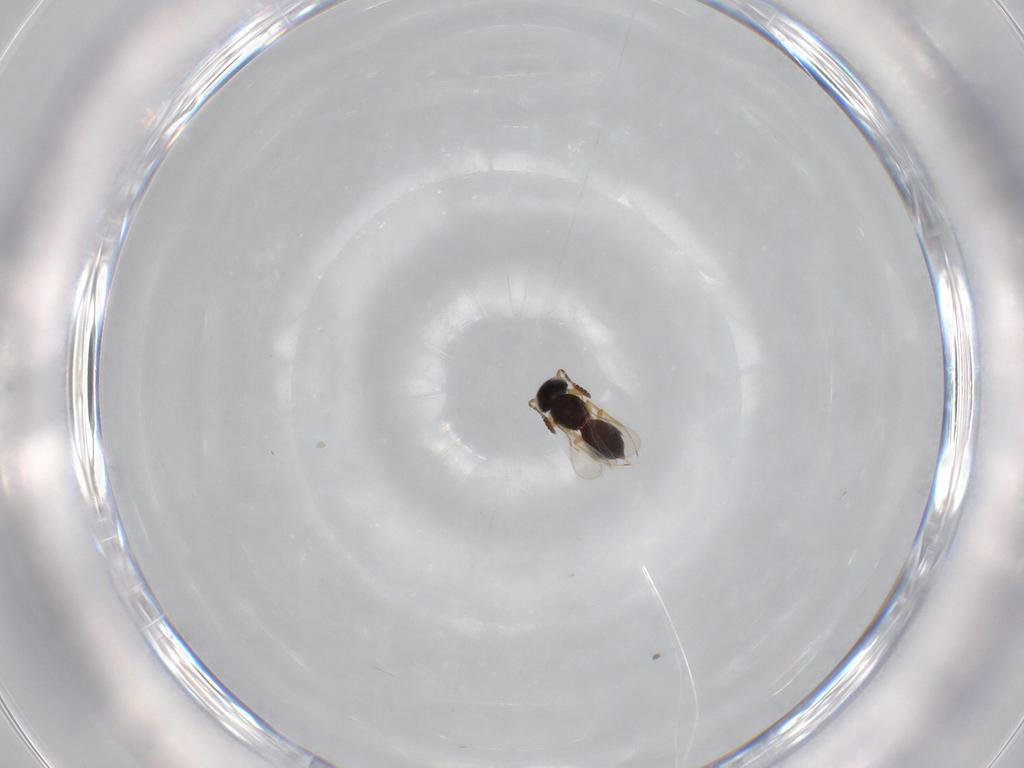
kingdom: Animalia
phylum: Arthropoda
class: Insecta
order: Hymenoptera
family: Scelionidae
